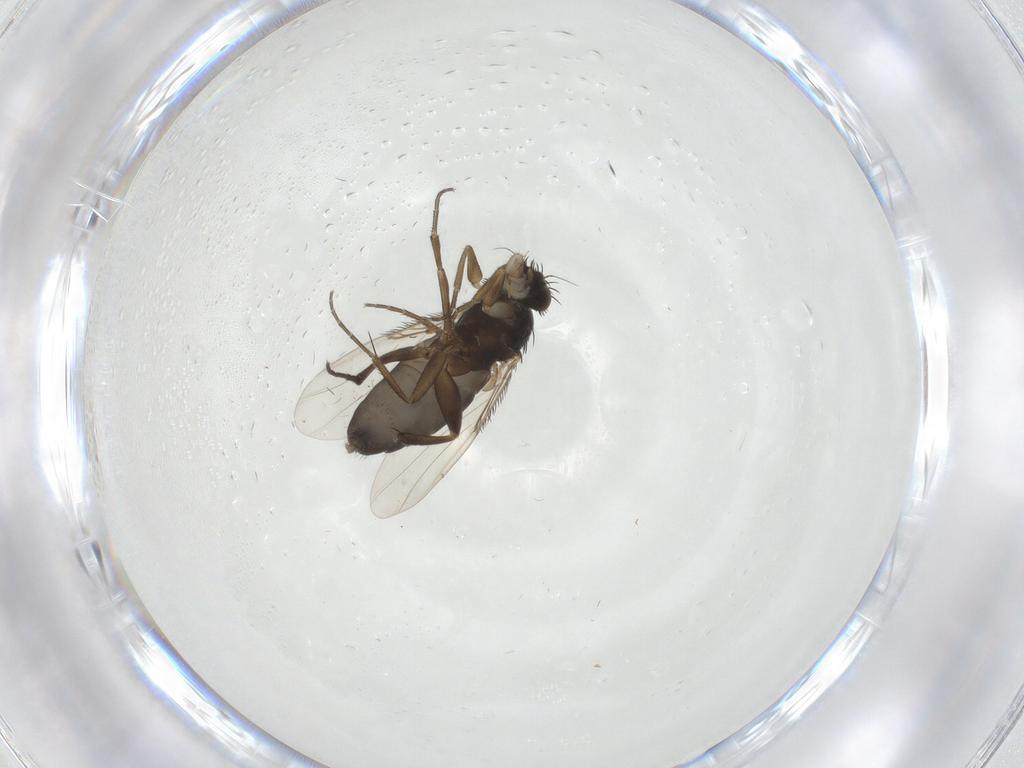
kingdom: Animalia
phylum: Arthropoda
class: Insecta
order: Diptera
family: Phoridae
